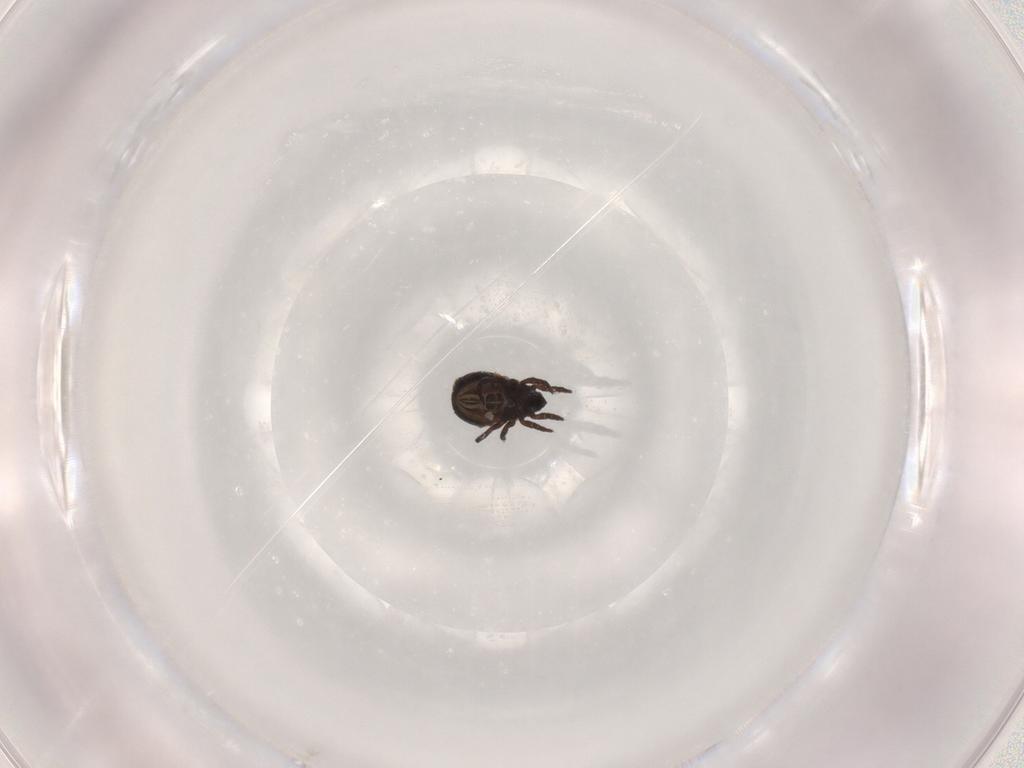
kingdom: Animalia
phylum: Arthropoda
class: Arachnida
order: Sarcoptiformes
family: Crotoniidae
